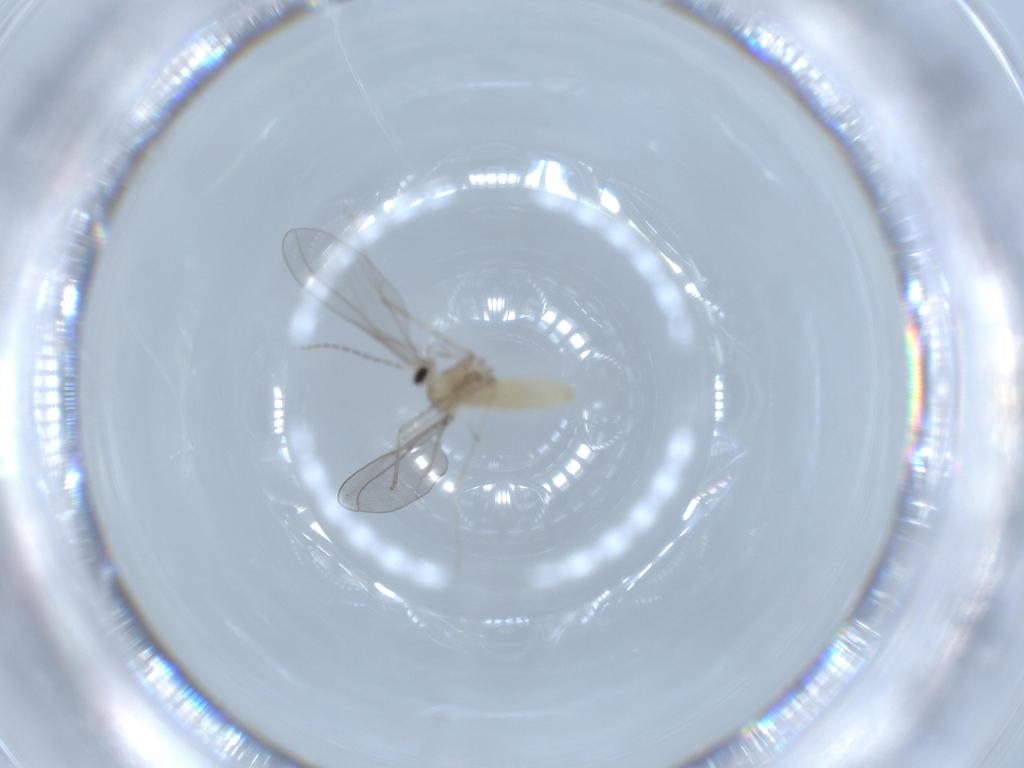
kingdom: Animalia
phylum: Arthropoda
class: Insecta
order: Diptera
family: Cecidomyiidae
